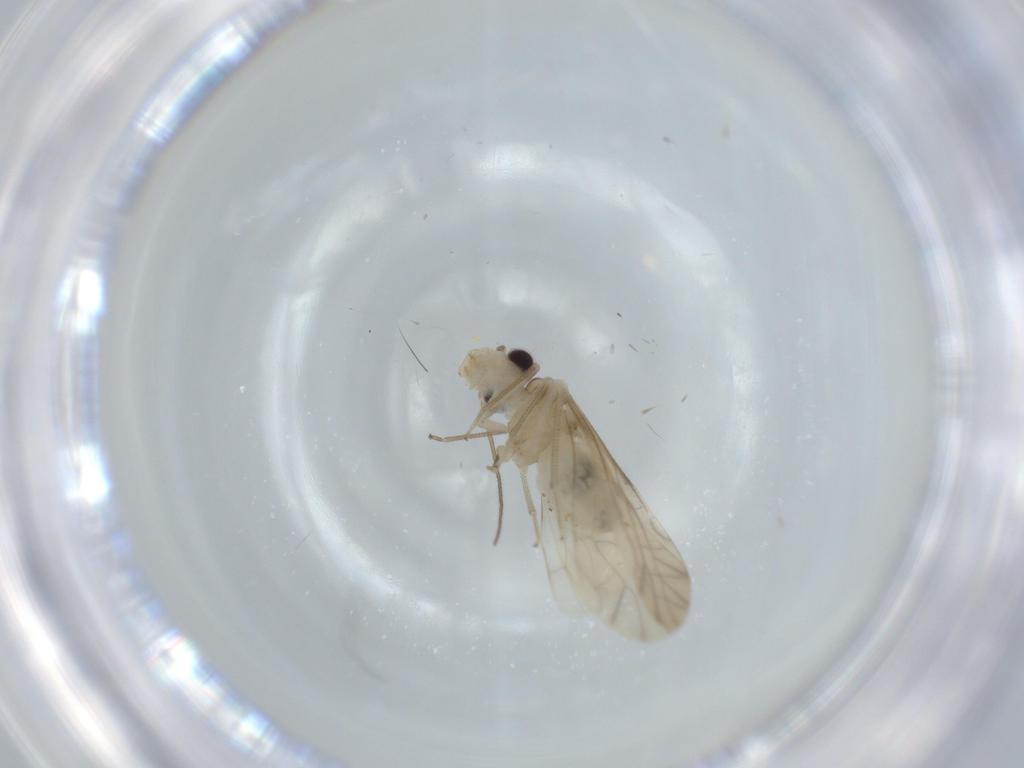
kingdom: Animalia
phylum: Arthropoda
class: Insecta
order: Psocodea
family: Caeciliusidae
